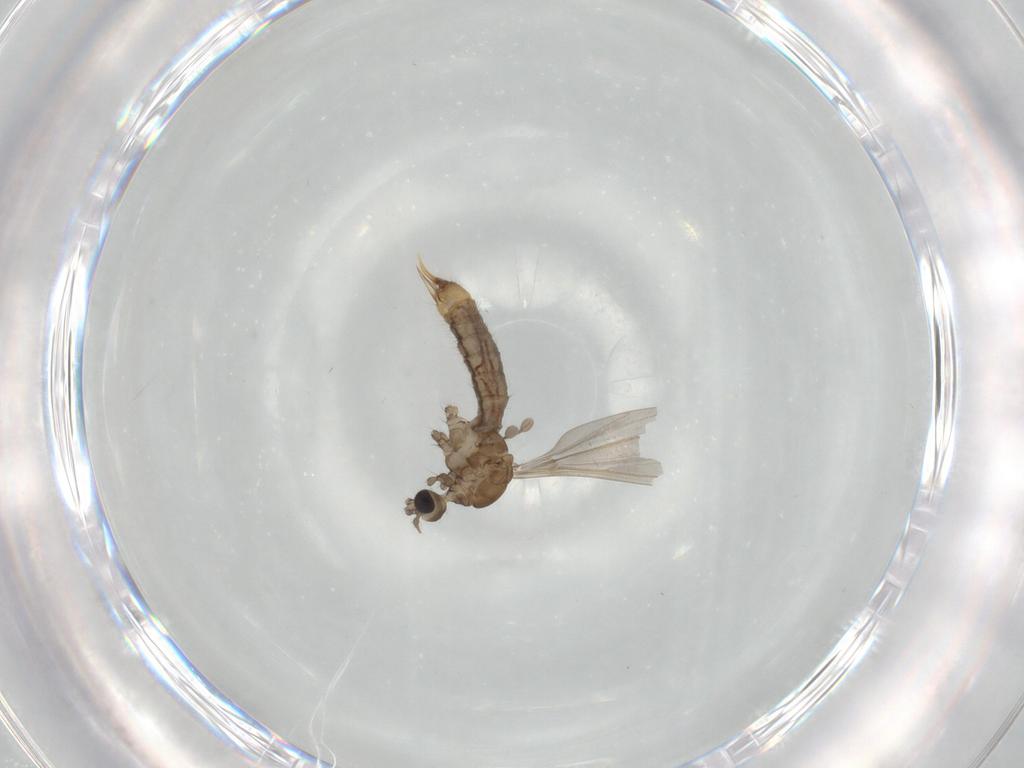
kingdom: Animalia
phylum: Arthropoda
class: Insecta
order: Diptera
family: Limoniidae
